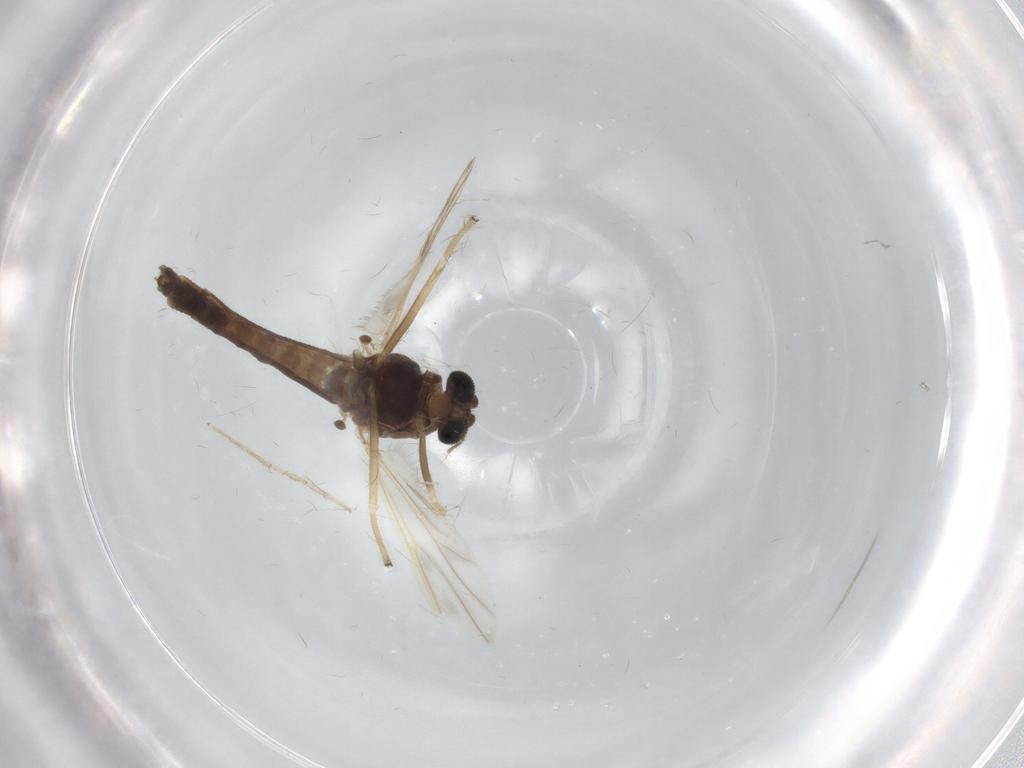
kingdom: Animalia
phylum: Arthropoda
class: Insecta
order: Diptera
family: Chironomidae
